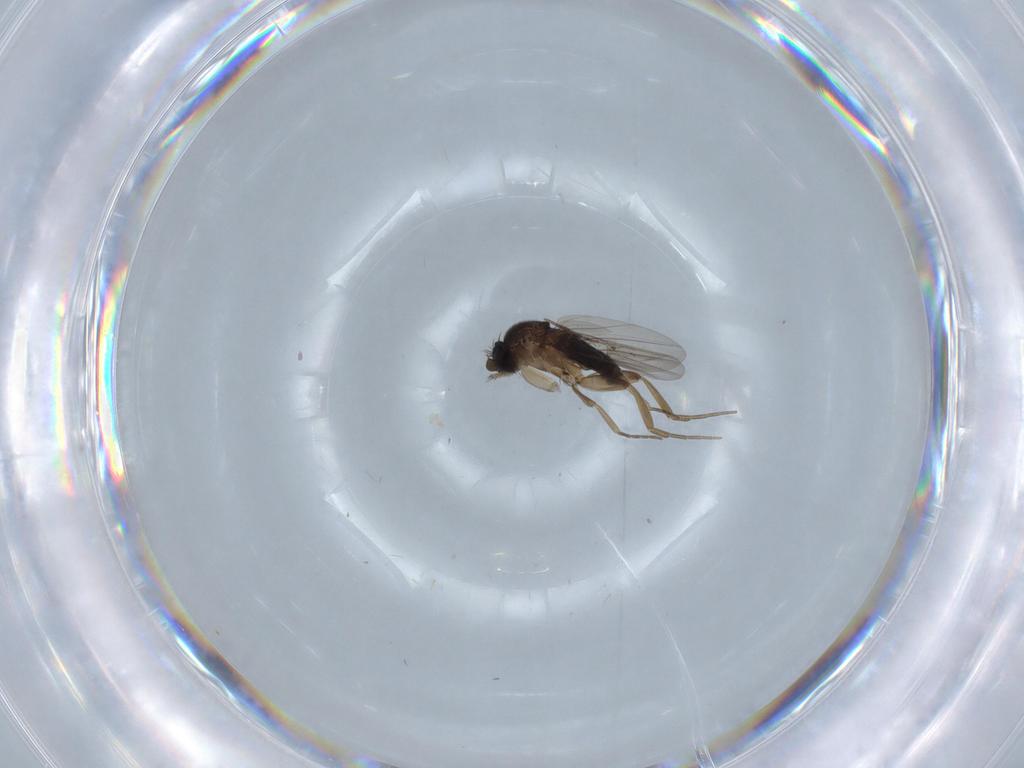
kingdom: Animalia
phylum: Arthropoda
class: Insecta
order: Diptera
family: Phoridae
